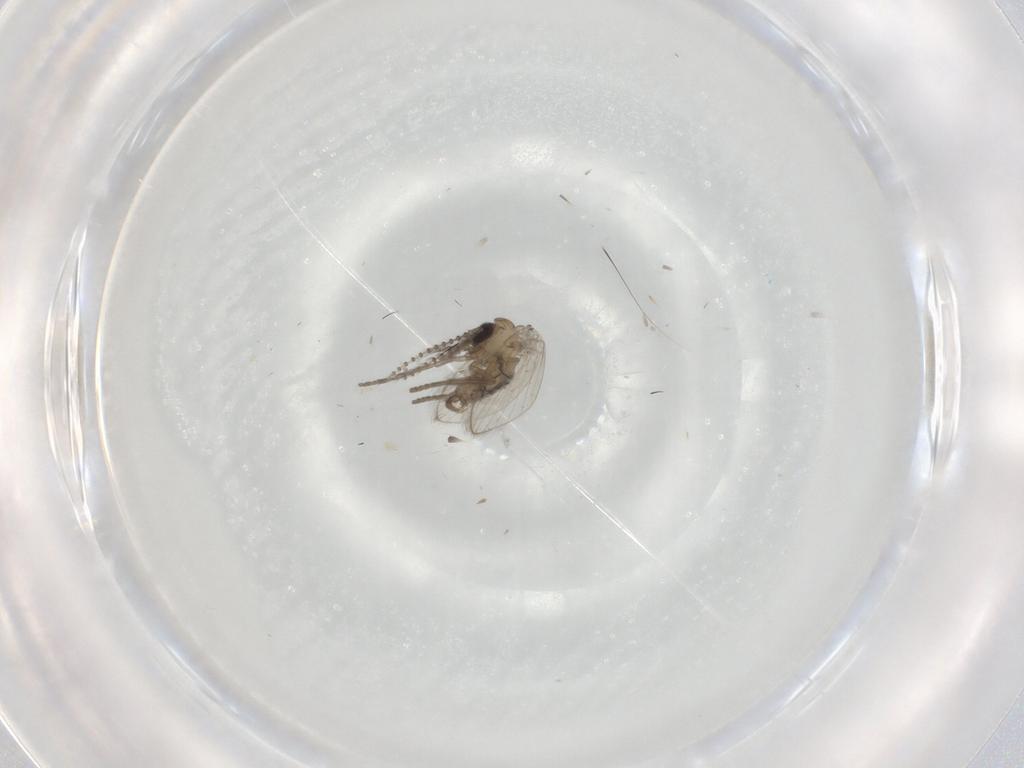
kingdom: Animalia
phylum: Arthropoda
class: Insecta
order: Diptera
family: Psychodidae
